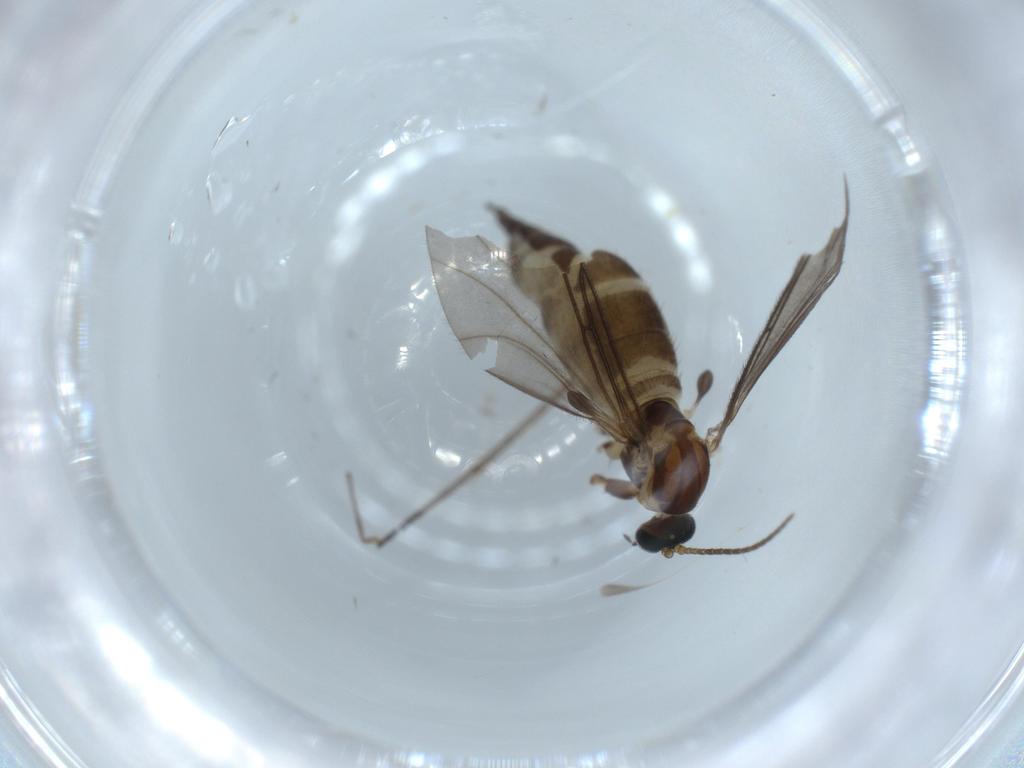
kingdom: Animalia
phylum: Arthropoda
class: Insecta
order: Diptera
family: Sciaridae
